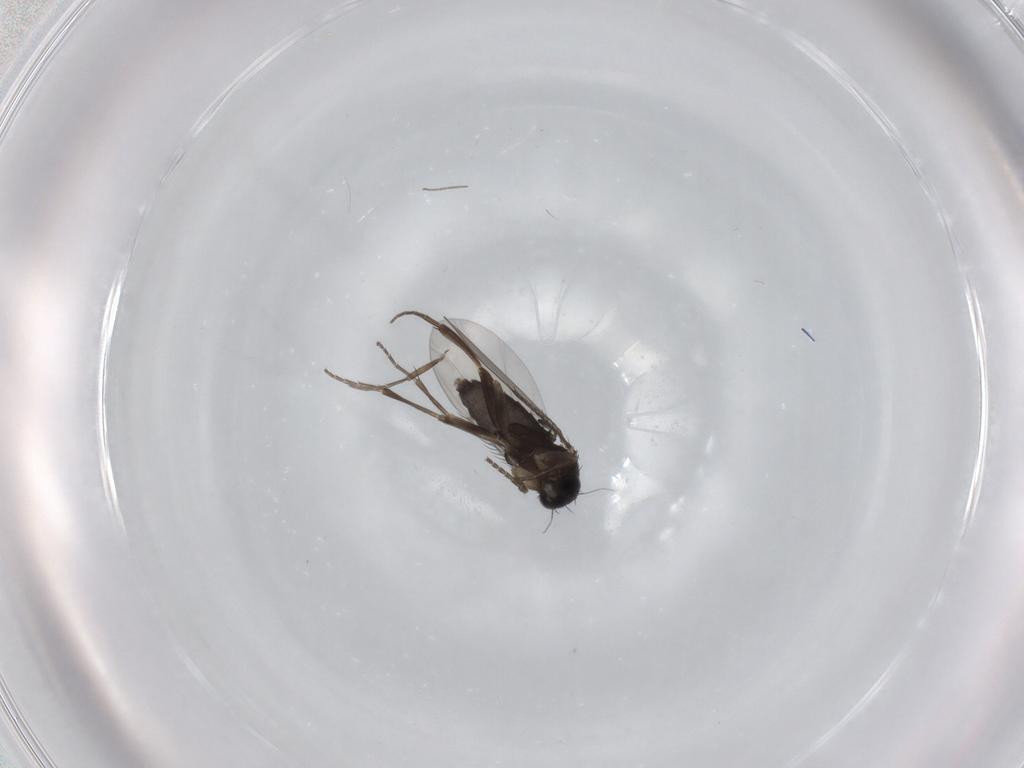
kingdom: Animalia
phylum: Arthropoda
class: Insecta
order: Diptera
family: Phoridae
